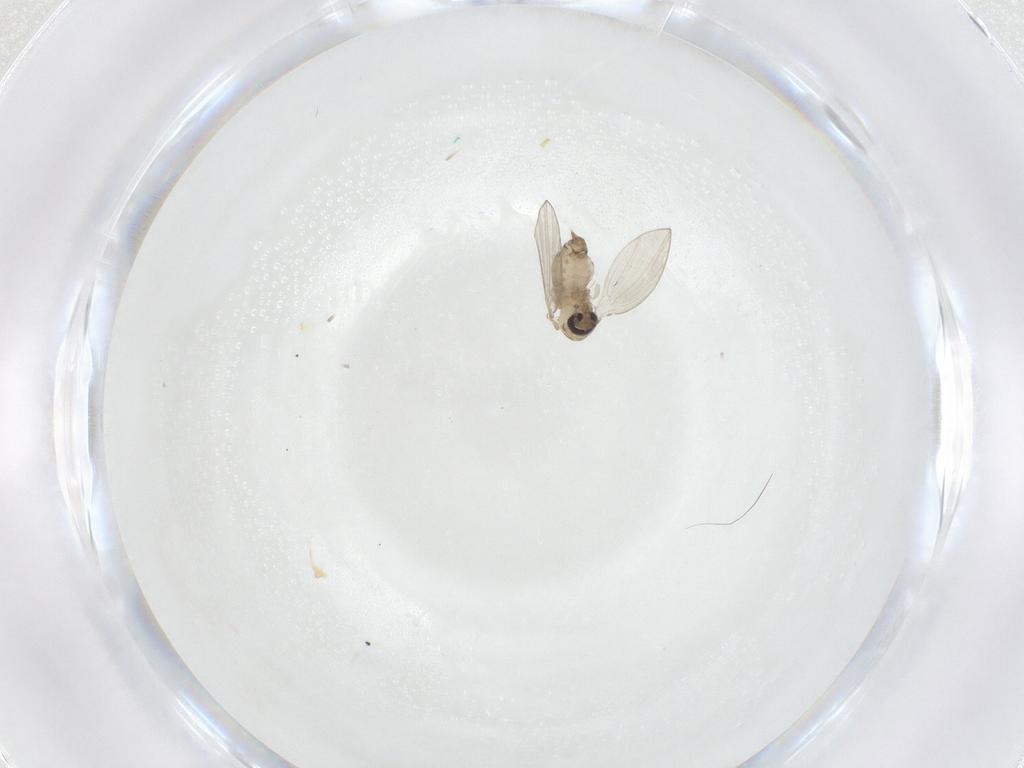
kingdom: Animalia
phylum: Arthropoda
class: Insecta
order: Diptera
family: Psychodidae
